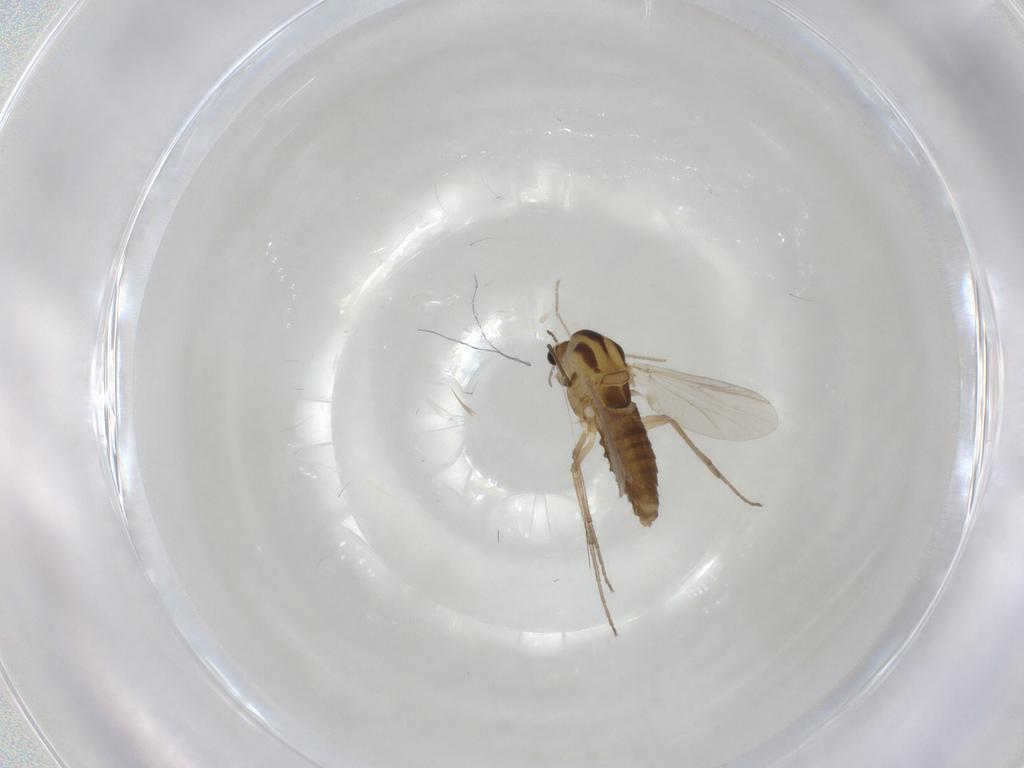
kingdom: Animalia
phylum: Arthropoda
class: Insecta
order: Diptera
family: Chironomidae
